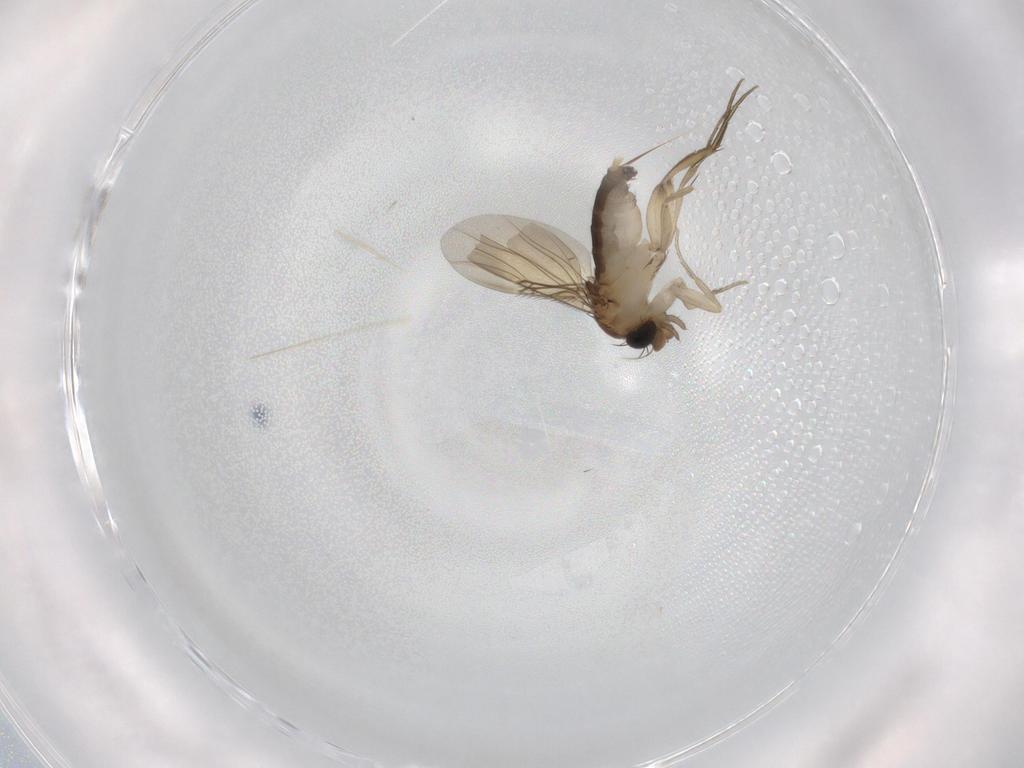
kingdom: Animalia
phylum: Arthropoda
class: Insecta
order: Diptera
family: Phoridae
